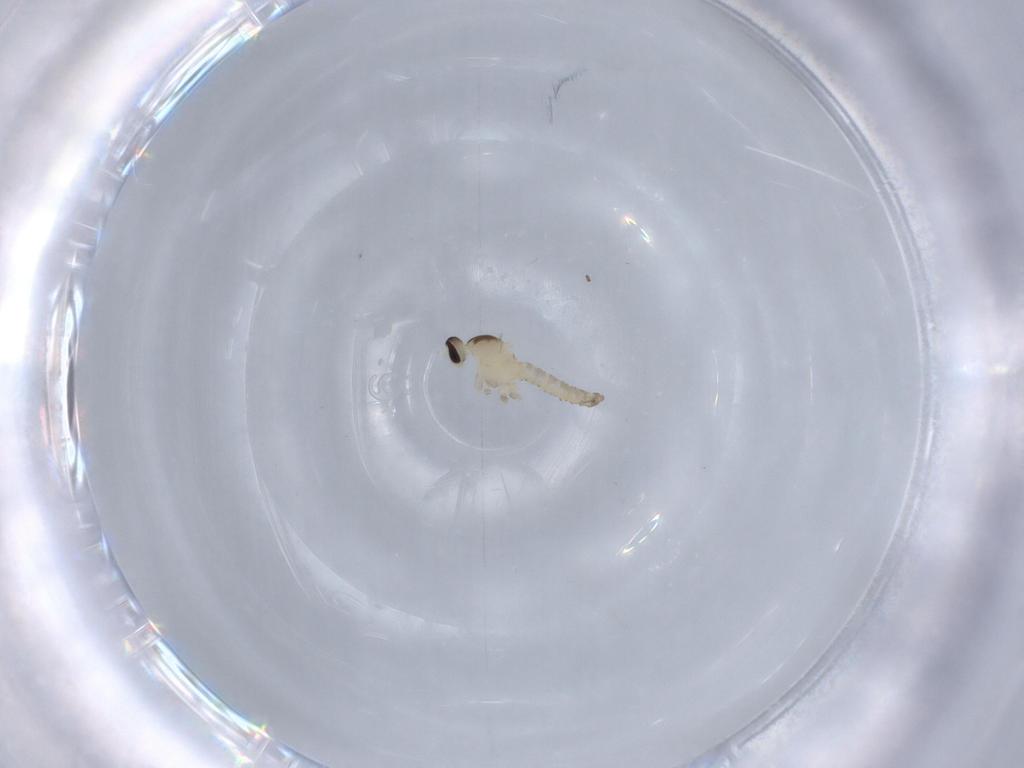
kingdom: Animalia
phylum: Arthropoda
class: Insecta
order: Diptera
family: Cecidomyiidae
